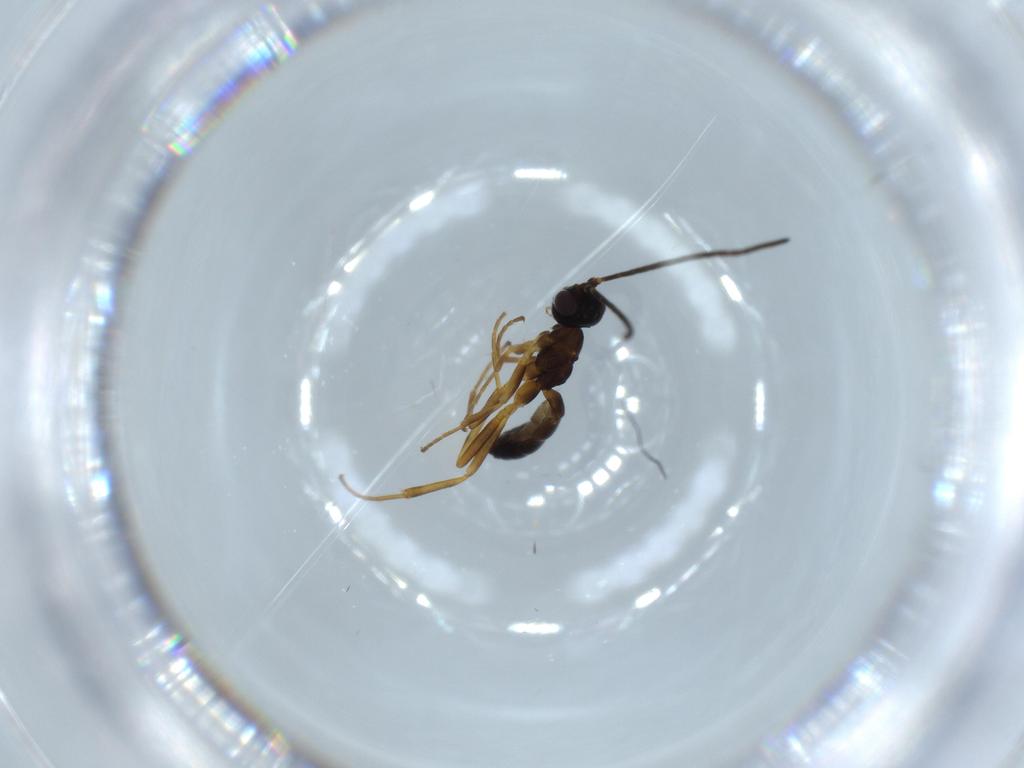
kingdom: Animalia
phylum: Arthropoda
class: Insecta
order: Hymenoptera
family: Ichneumonidae
